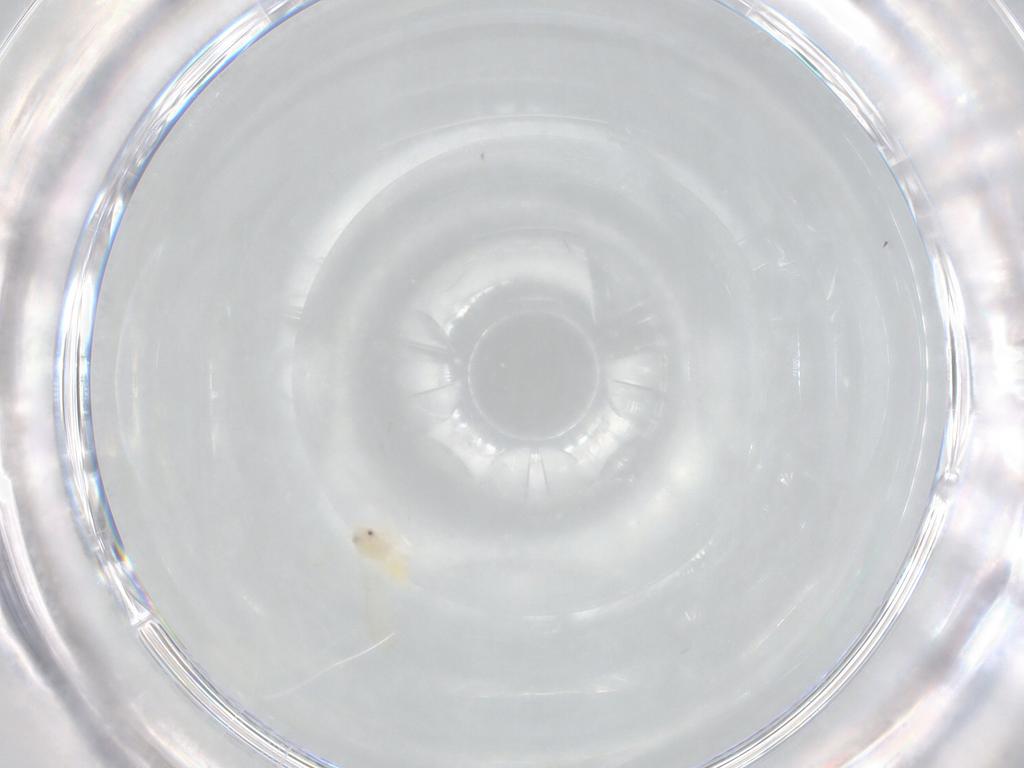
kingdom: Animalia
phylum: Arthropoda
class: Insecta
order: Hemiptera
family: Aleyrodidae
